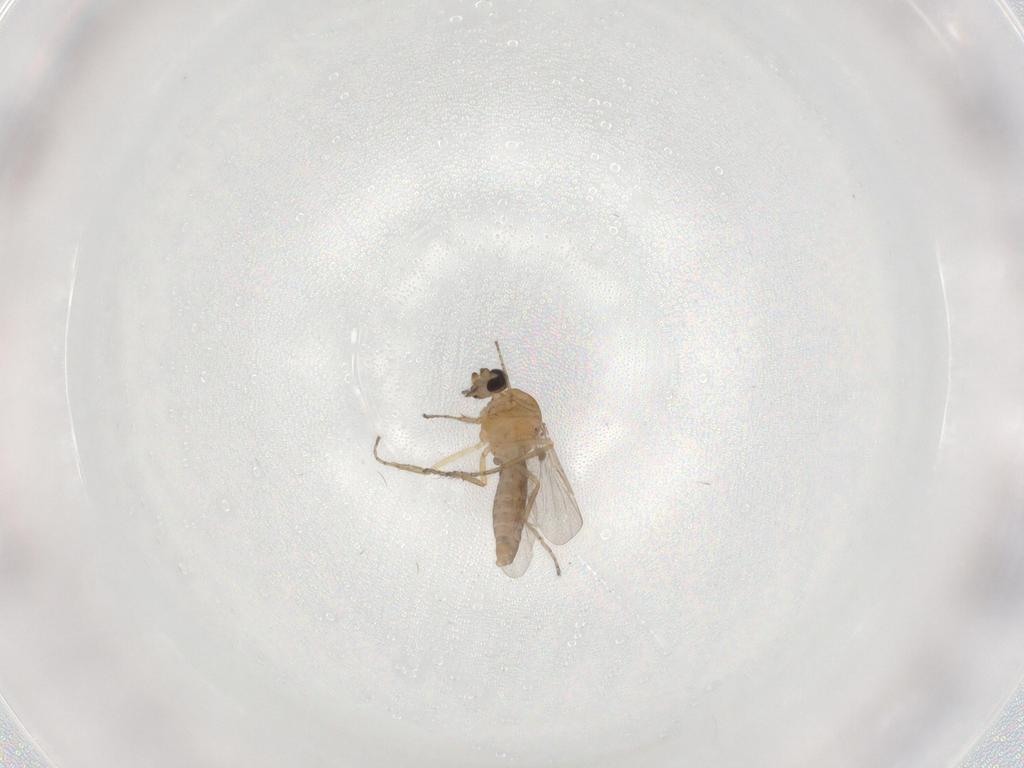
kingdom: Animalia
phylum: Arthropoda
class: Insecta
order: Diptera
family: Ceratopogonidae
